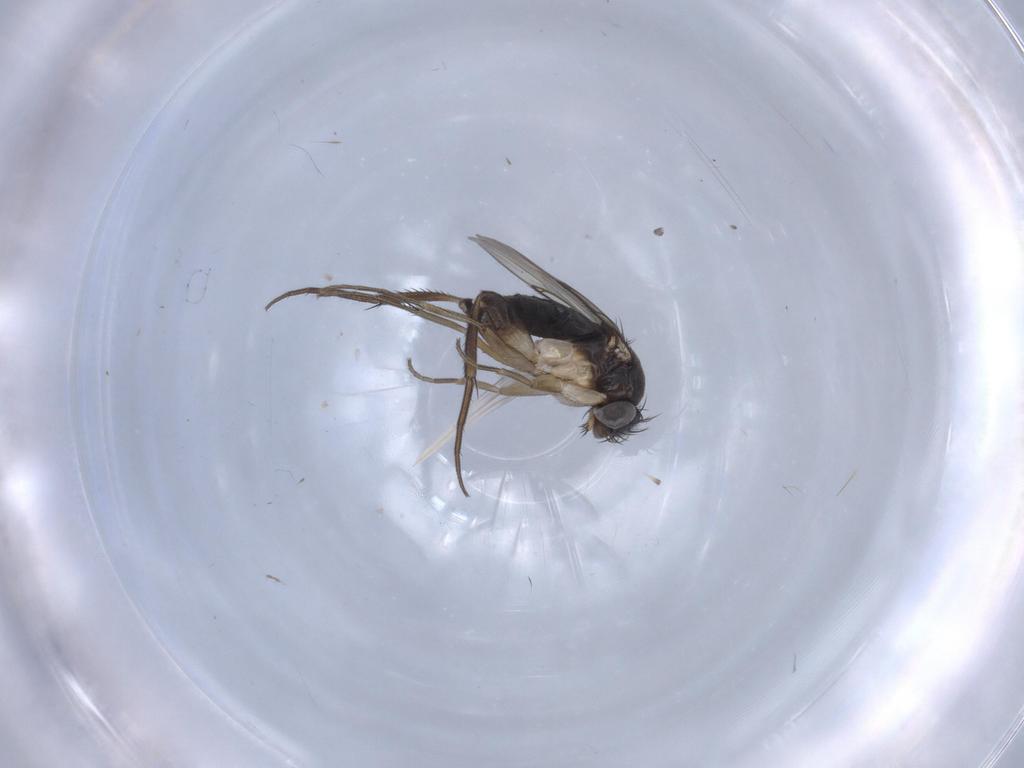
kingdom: Animalia
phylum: Arthropoda
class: Insecta
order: Diptera
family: Phoridae
